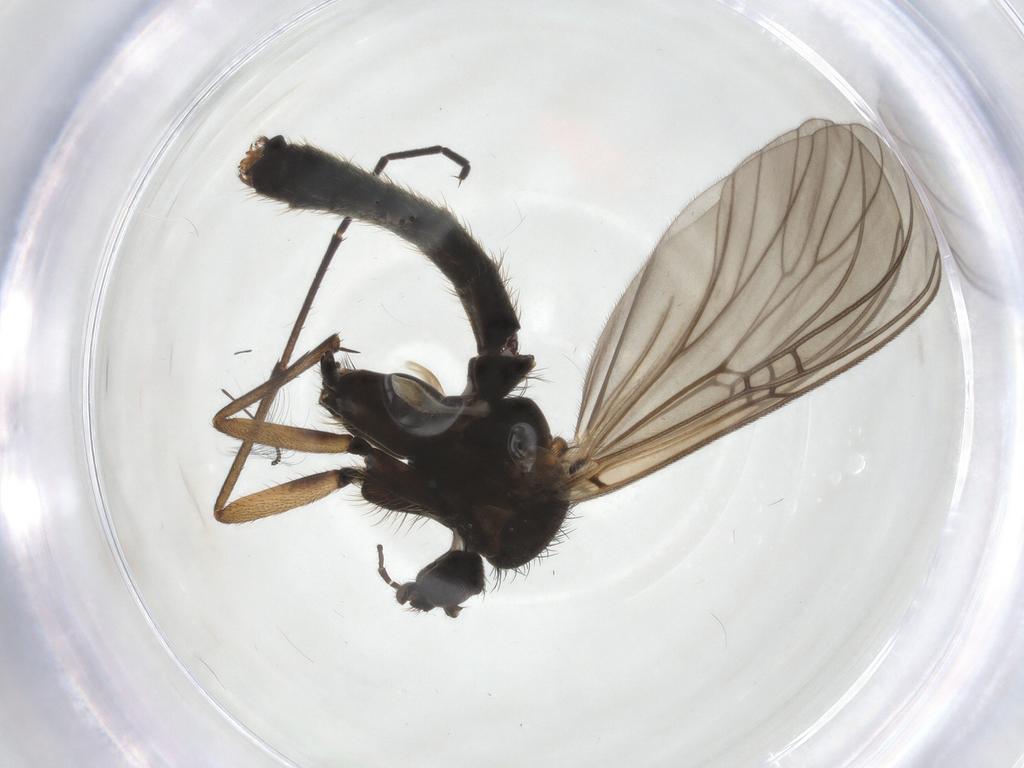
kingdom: Animalia
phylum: Arthropoda
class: Insecta
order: Diptera
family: Mycetophilidae
